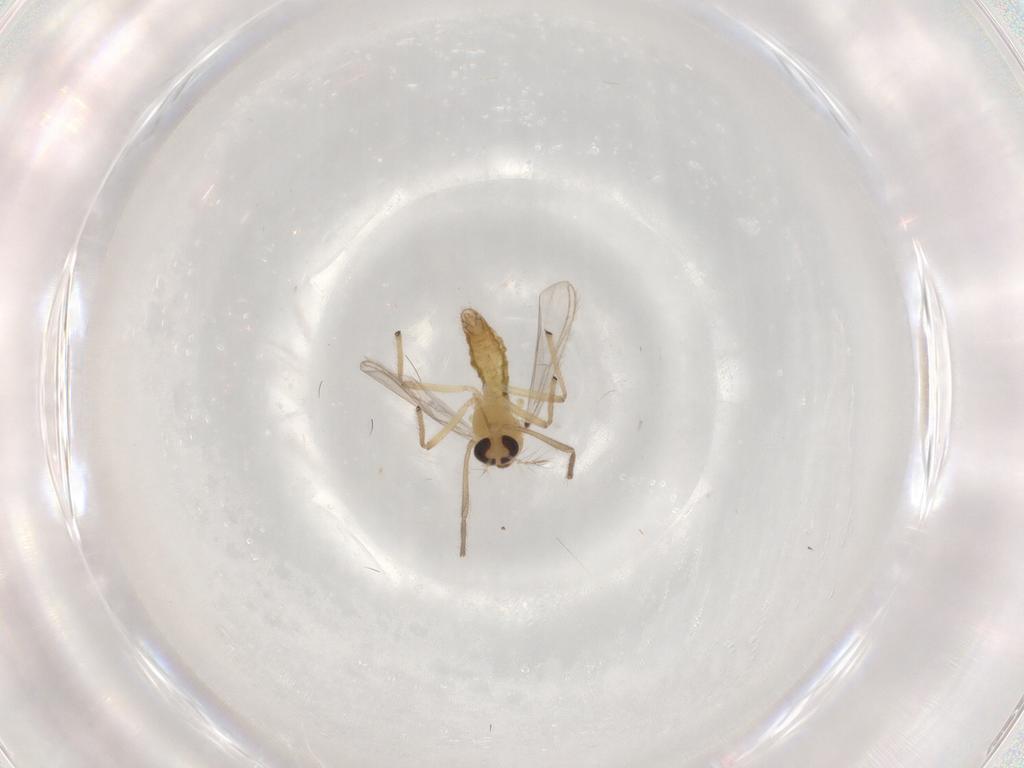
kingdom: Animalia
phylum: Arthropoda
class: Insecta
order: Diptera
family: Chironomidae
